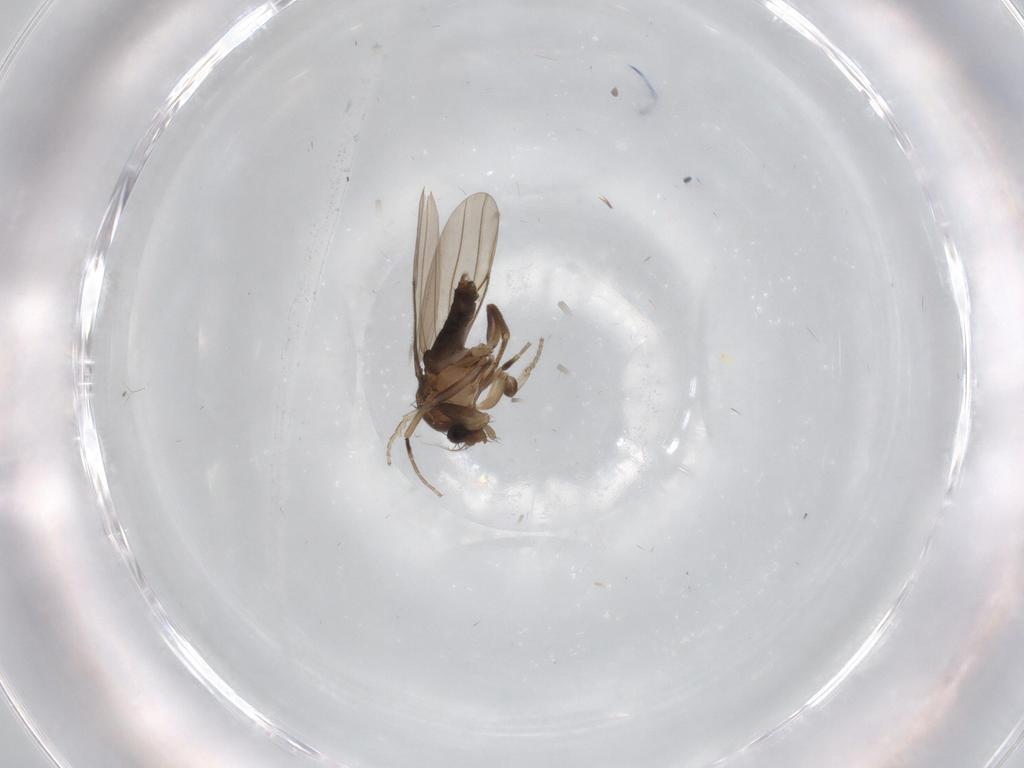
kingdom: Animalia
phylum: Arthropoda
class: Insecta
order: Diptera
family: Phoridae
